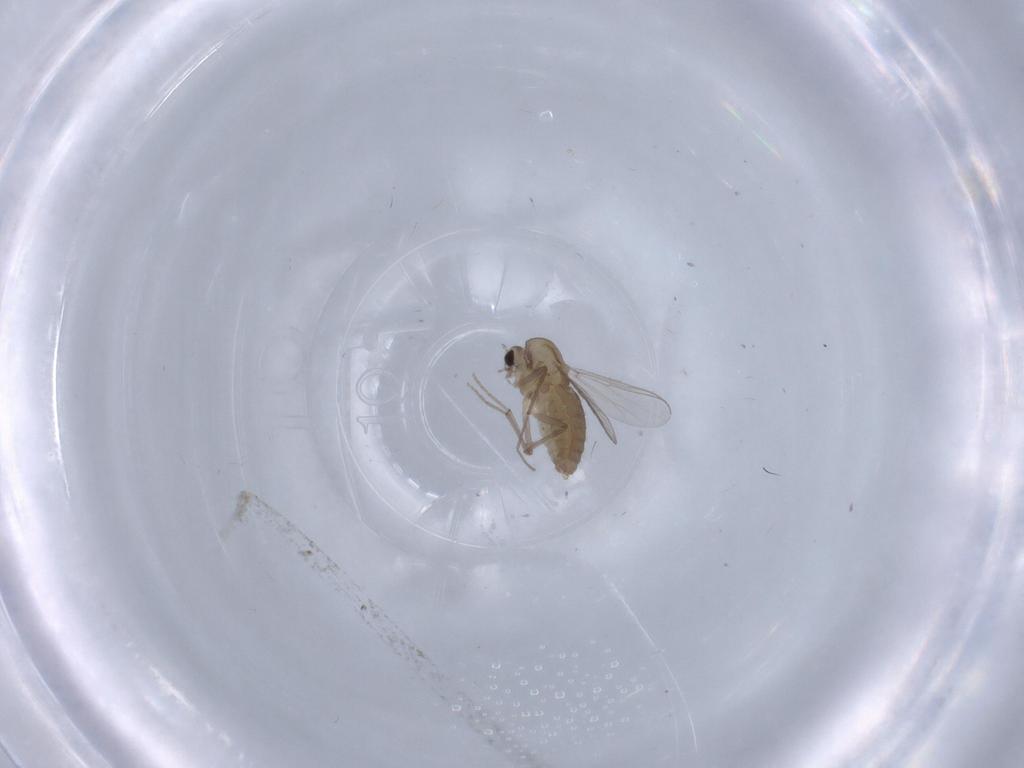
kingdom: Animalia
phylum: Arthropoda
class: Insecta
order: Diptera
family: Chironomidae
